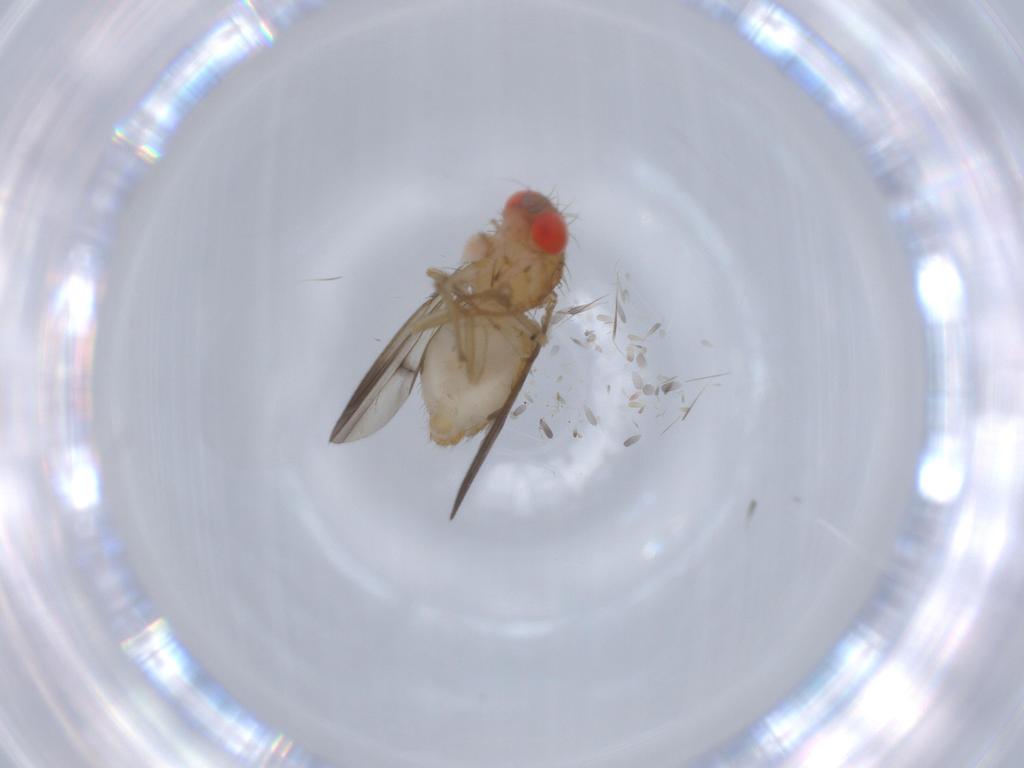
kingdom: Animalia
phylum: Arthropoda
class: Insecta
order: Diptera
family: Drosophilidae
